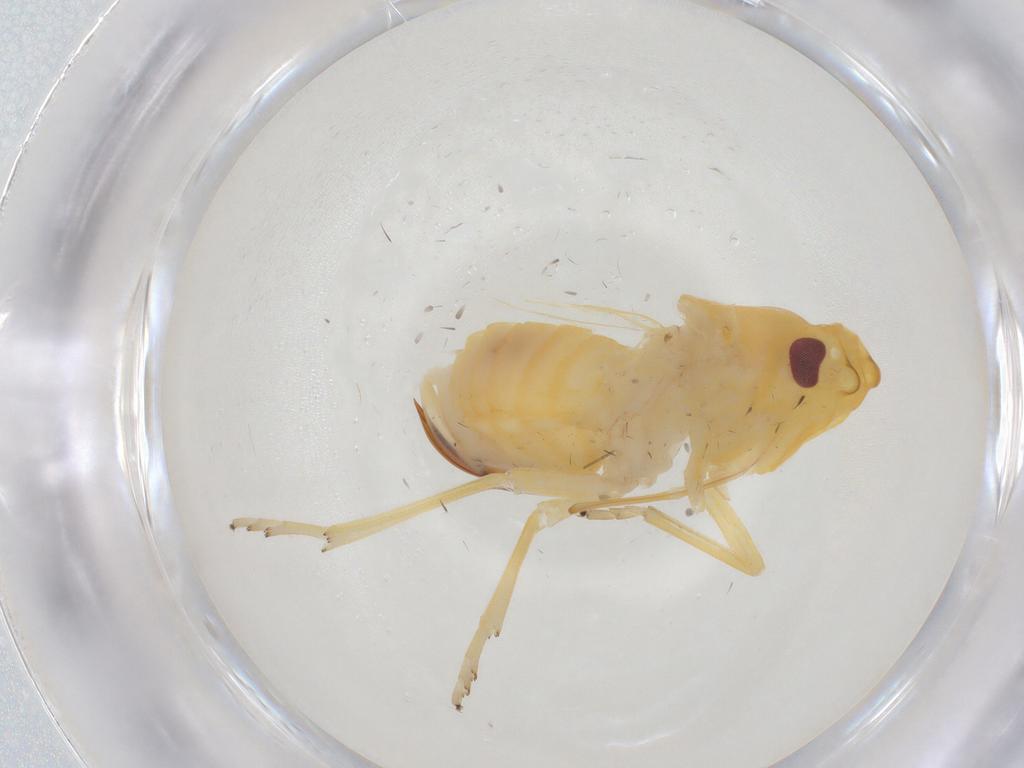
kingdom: Animalia
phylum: Arthropoda
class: Insecta
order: Hemiptera
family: Cixiidae
